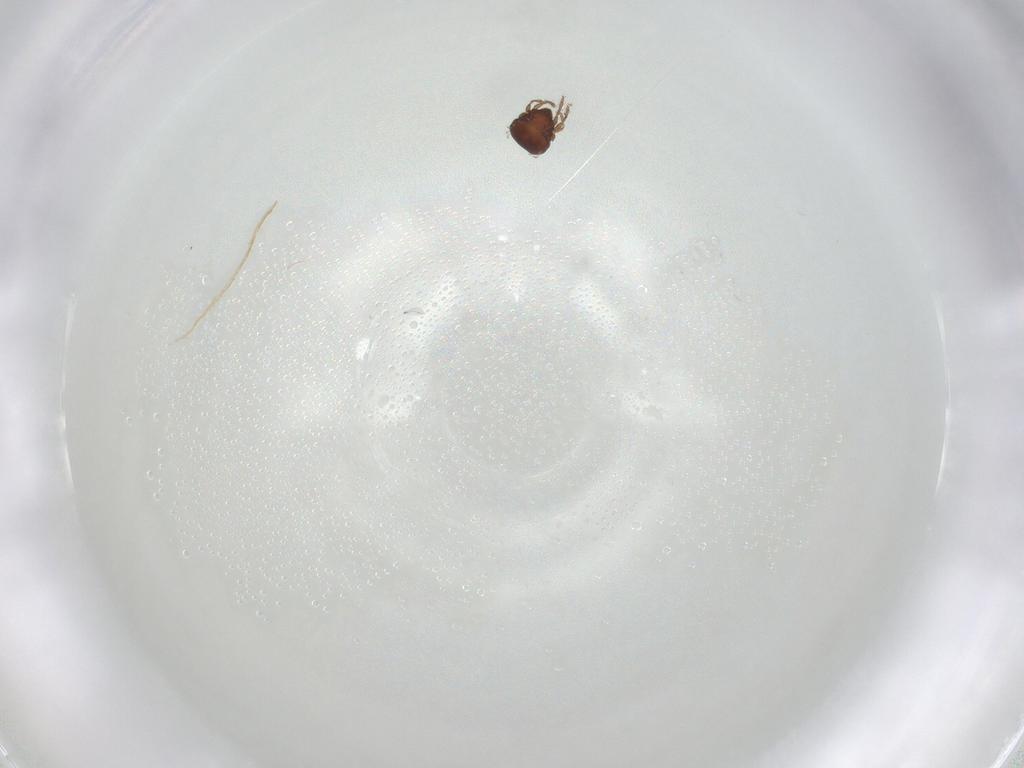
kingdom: Animalia
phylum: Arthropoda
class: Arachnida
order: Sarcoptiformes
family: Oribatulidae
